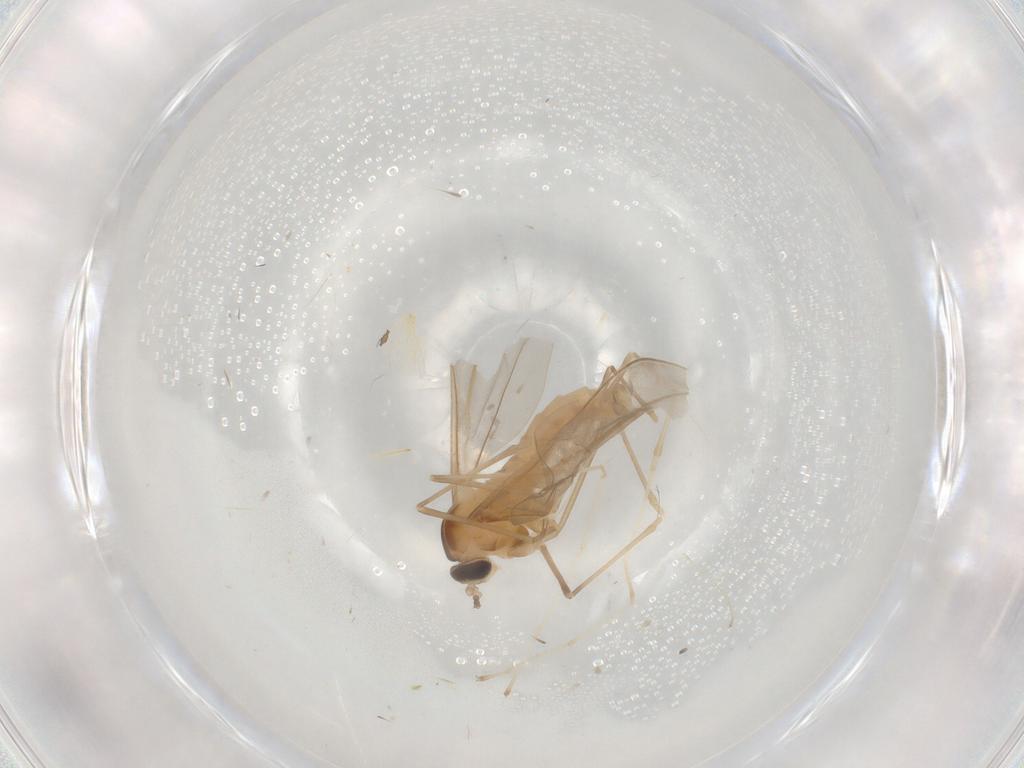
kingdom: Animalia
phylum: Arthropoda
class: Insecta
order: Diptera
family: Cecidomyiidae
